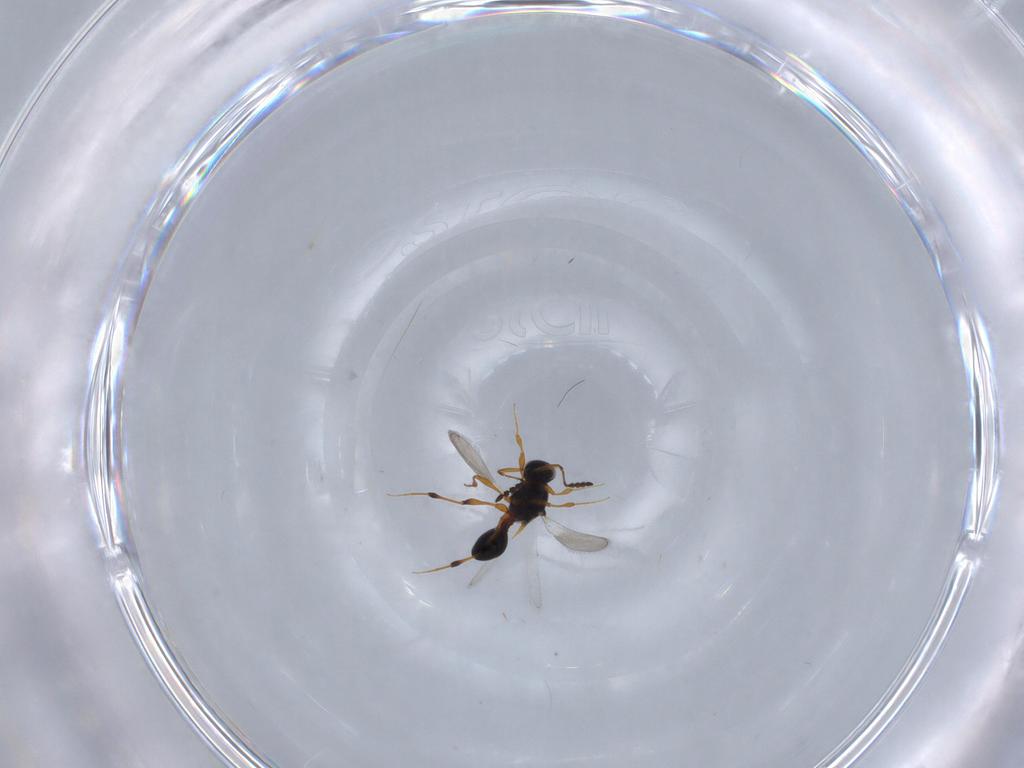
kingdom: Animalia
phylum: Arthropoda
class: Insecta
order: Hymenoptera
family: Platygastridae
